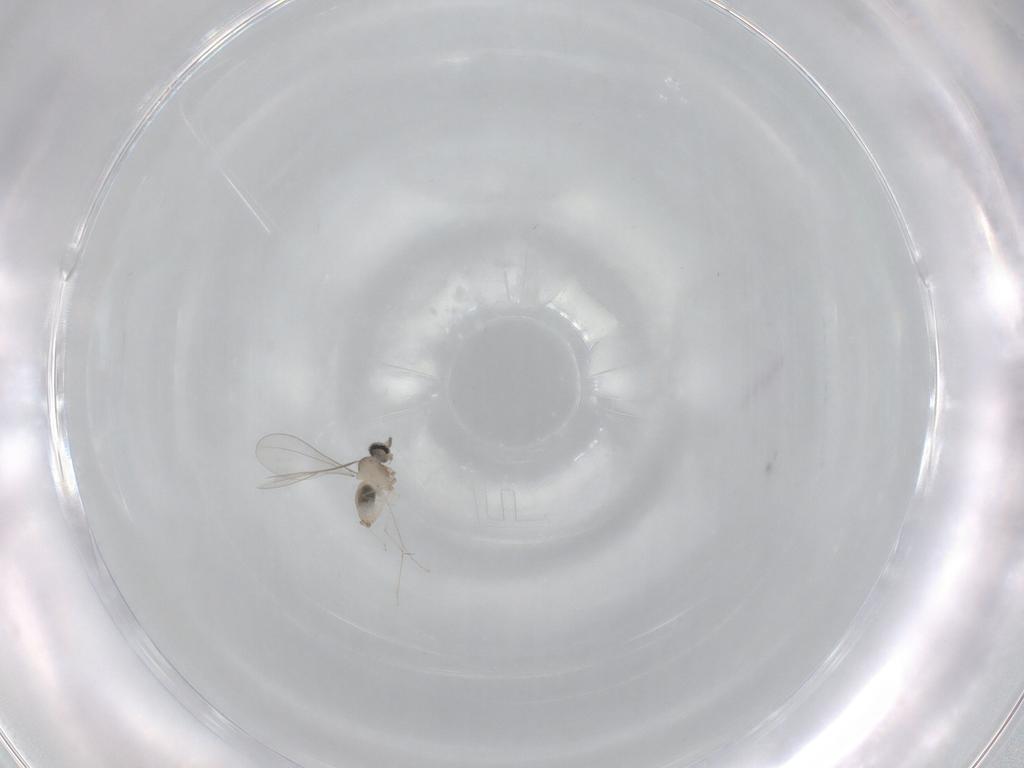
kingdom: Animalia
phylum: Arthropoda
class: Insecta
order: Diptera
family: Cecidomyiidae
